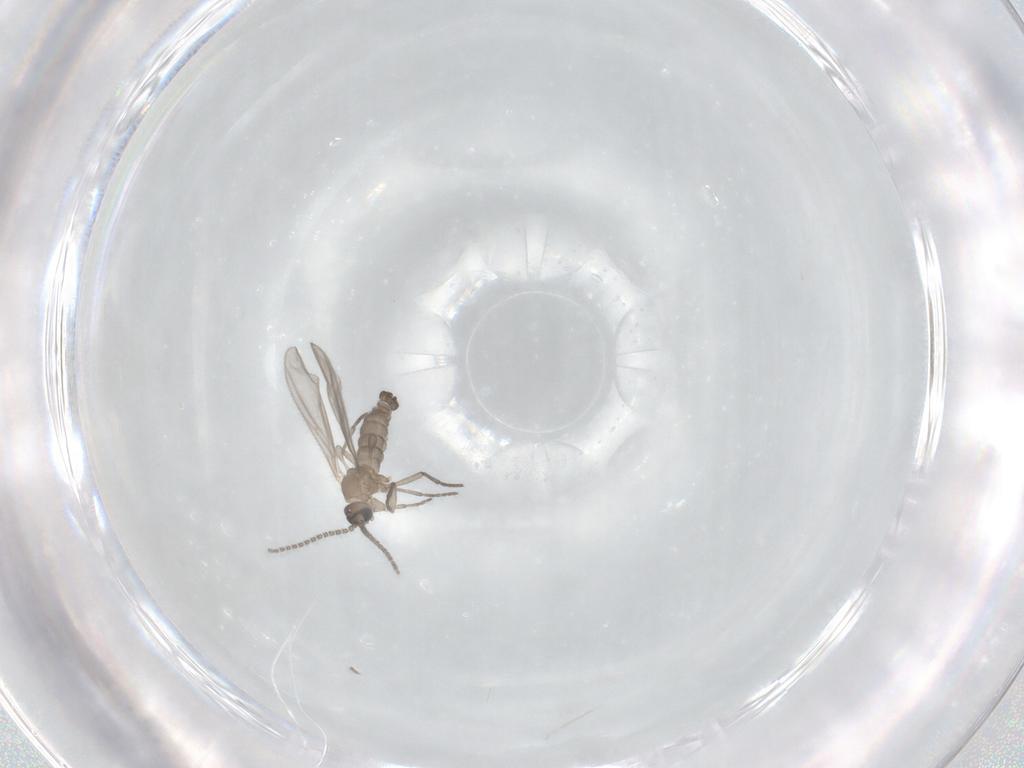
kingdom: Animalia
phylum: Arthropoda
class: Insecta
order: Diptera
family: Sciaridae
